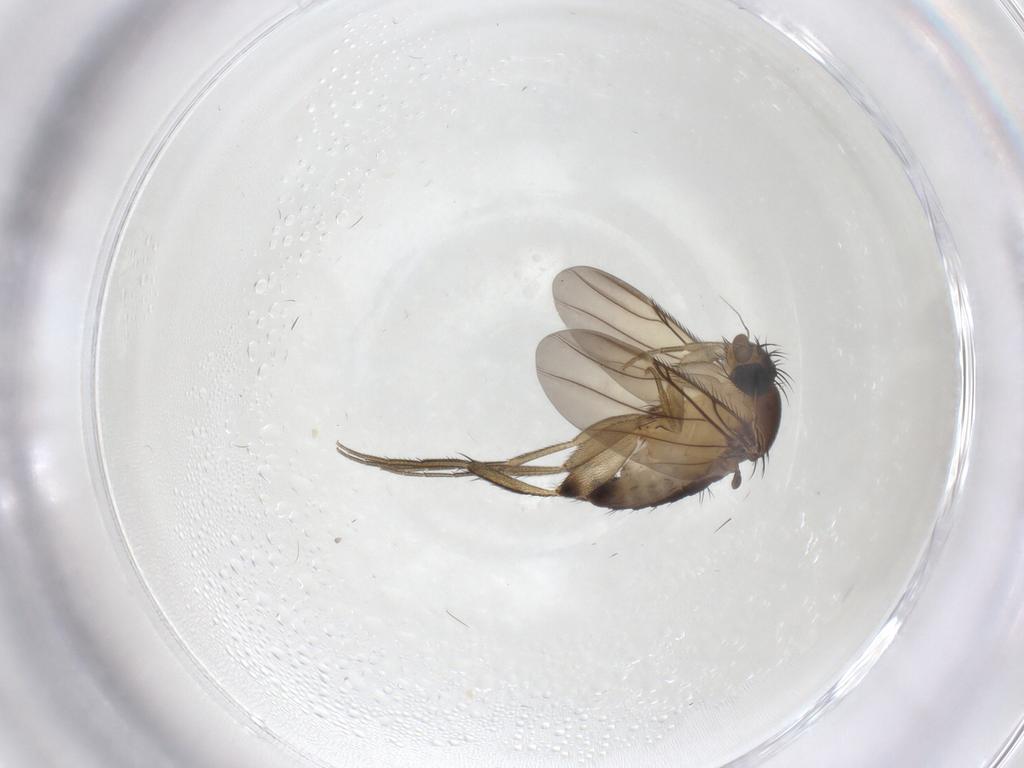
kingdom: Animalia
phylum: Arthropoda
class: Insecta
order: Diptera
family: Phoridae
